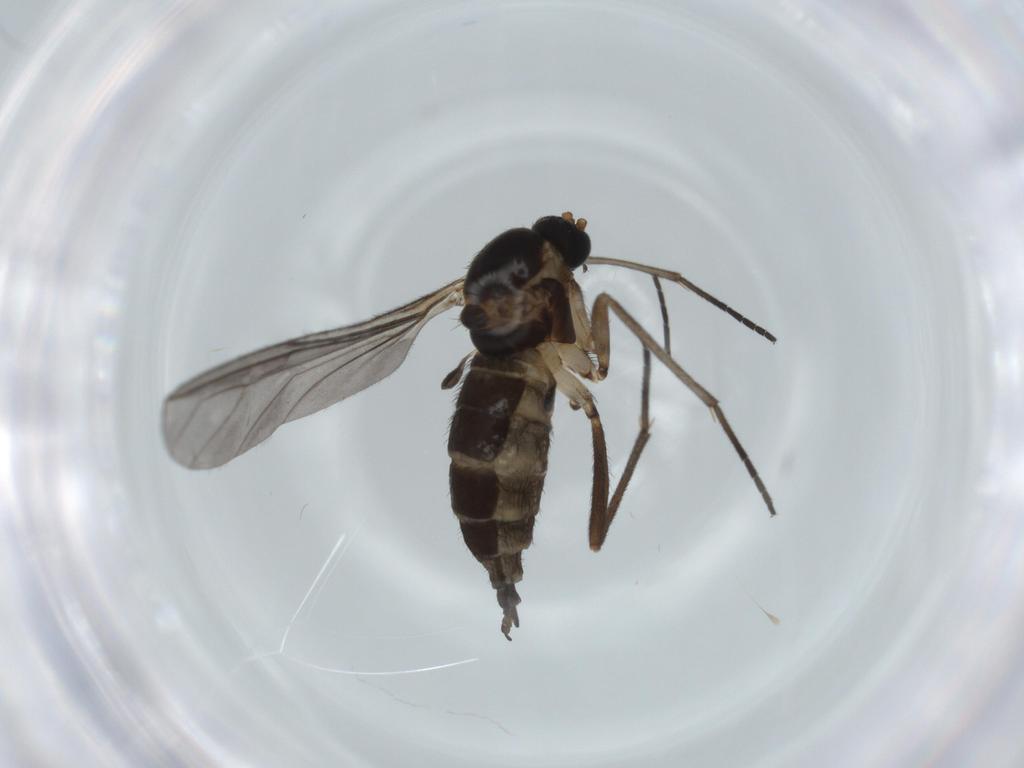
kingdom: Animalia
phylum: Arthropoda
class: Insecta
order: Diptera
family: Sciaridae
